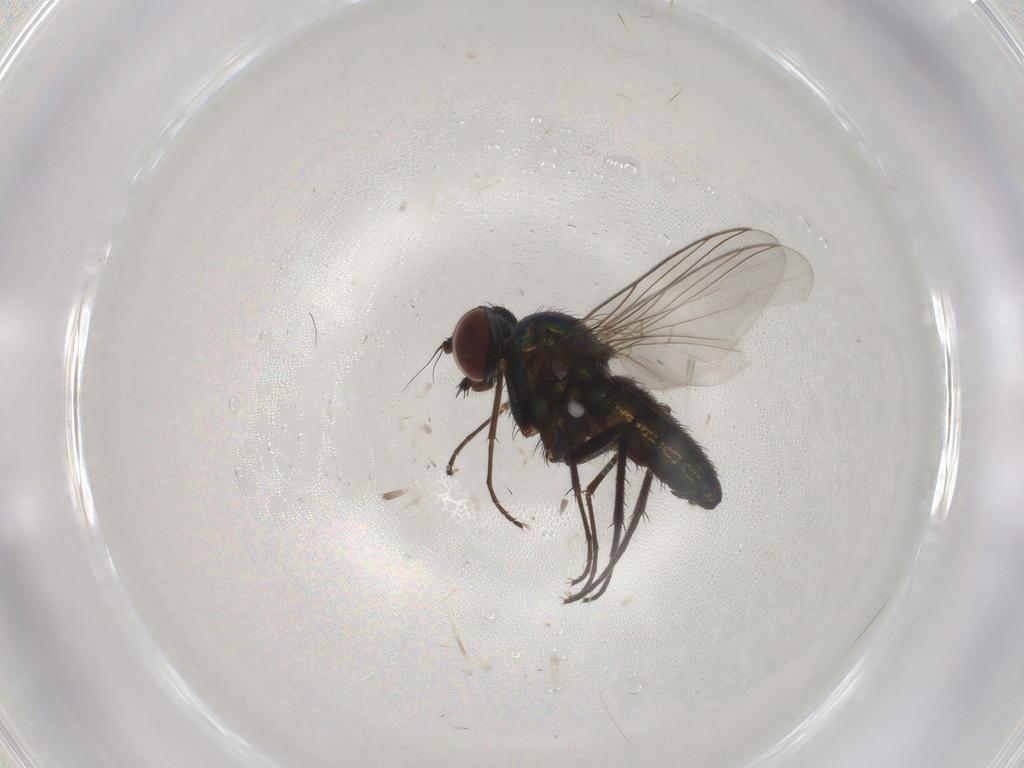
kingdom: Animalia
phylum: Arthropoda
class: Insecta
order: Diptera
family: Dolichopodidae
